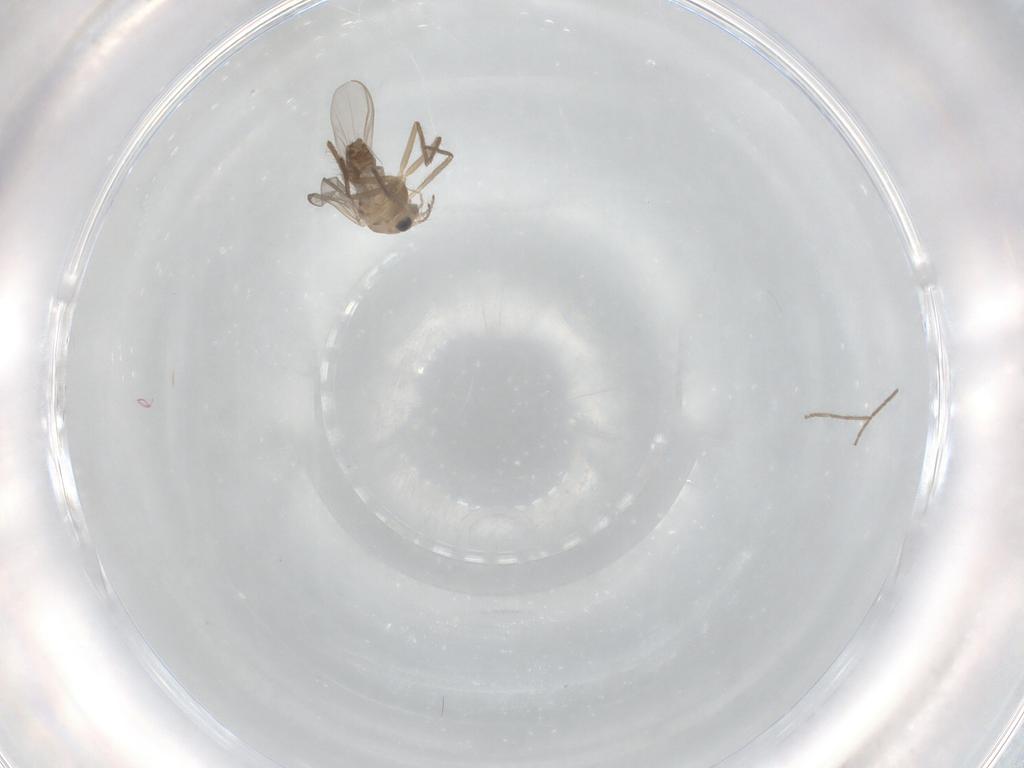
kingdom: Animalia
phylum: Arthropoda
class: Insecta
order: Diptera
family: Chironomidae
